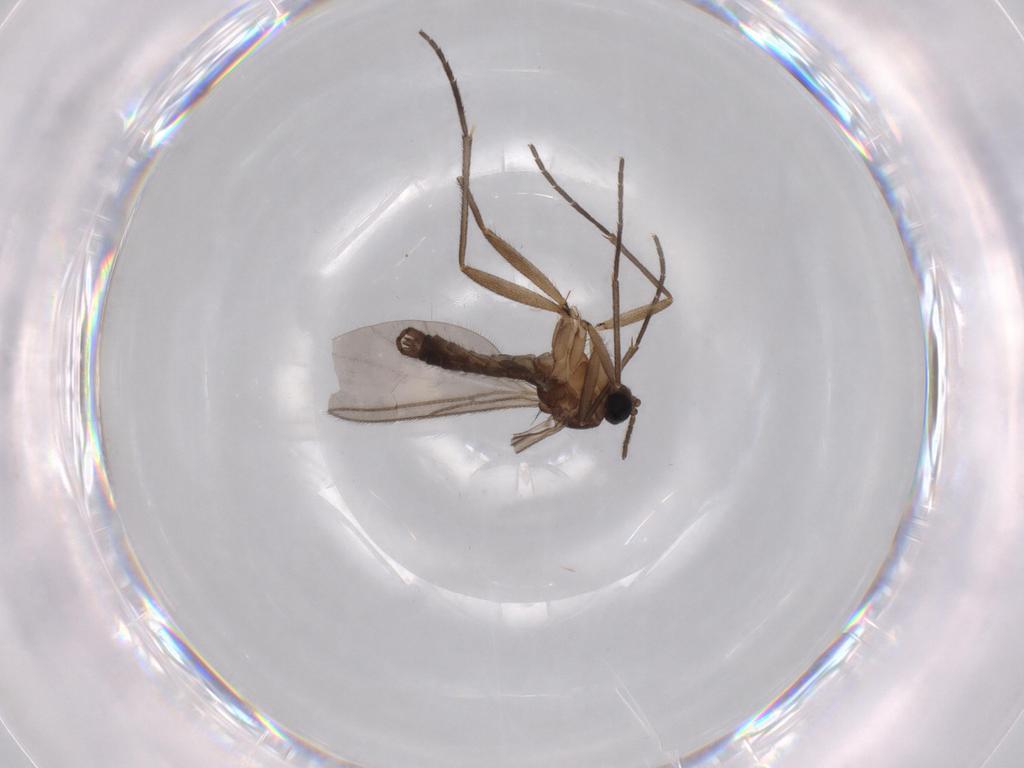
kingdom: Animalia
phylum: Arthropoda
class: Insecta
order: Diptera
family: Sciaridae
